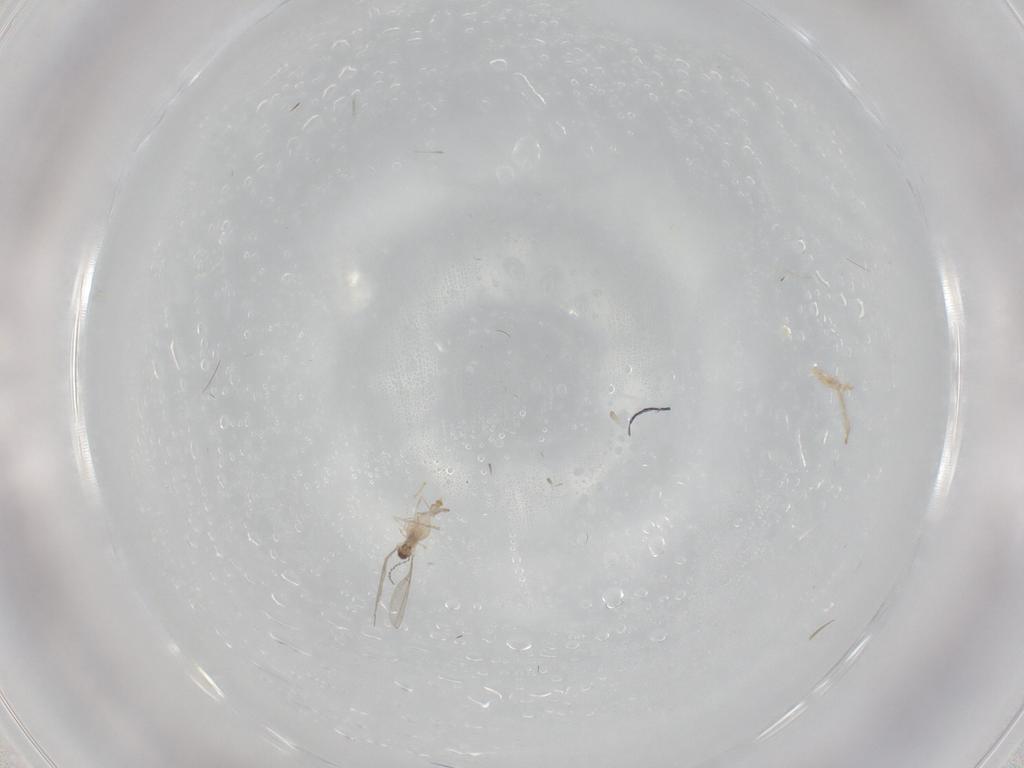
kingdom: Animalia
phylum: Arthropoda
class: Insecta
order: Diptera
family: Cecidomyiidae
